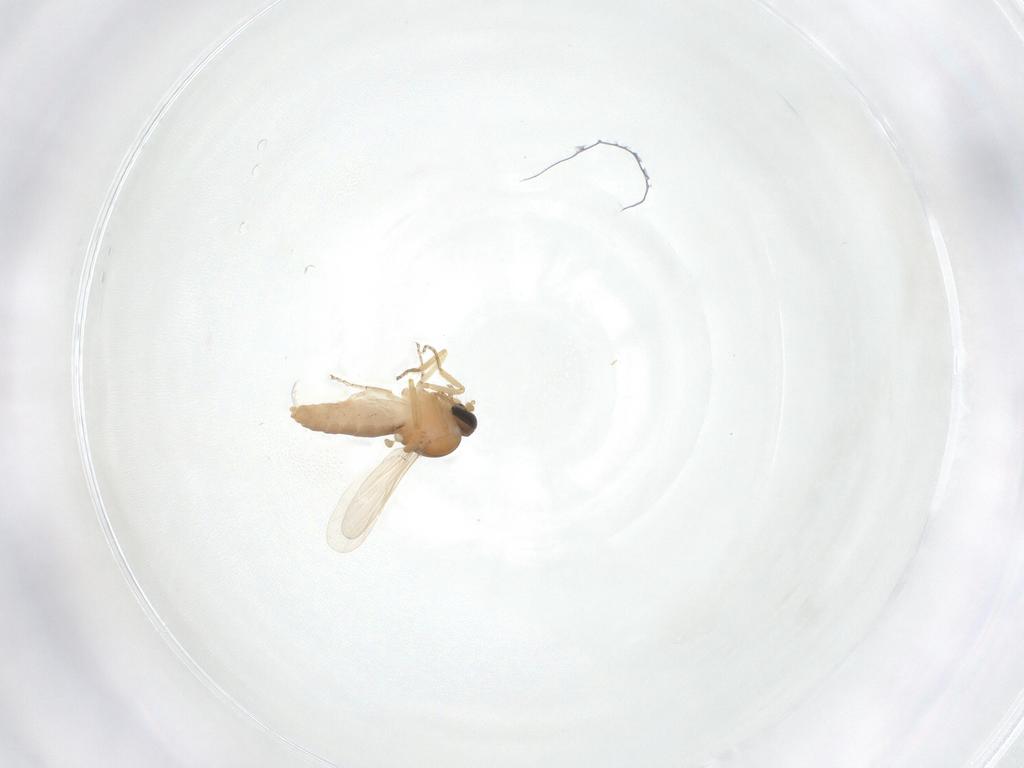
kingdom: Animalia
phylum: Arthropoda
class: Insecta
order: Diptera
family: Ceratopogonidae
